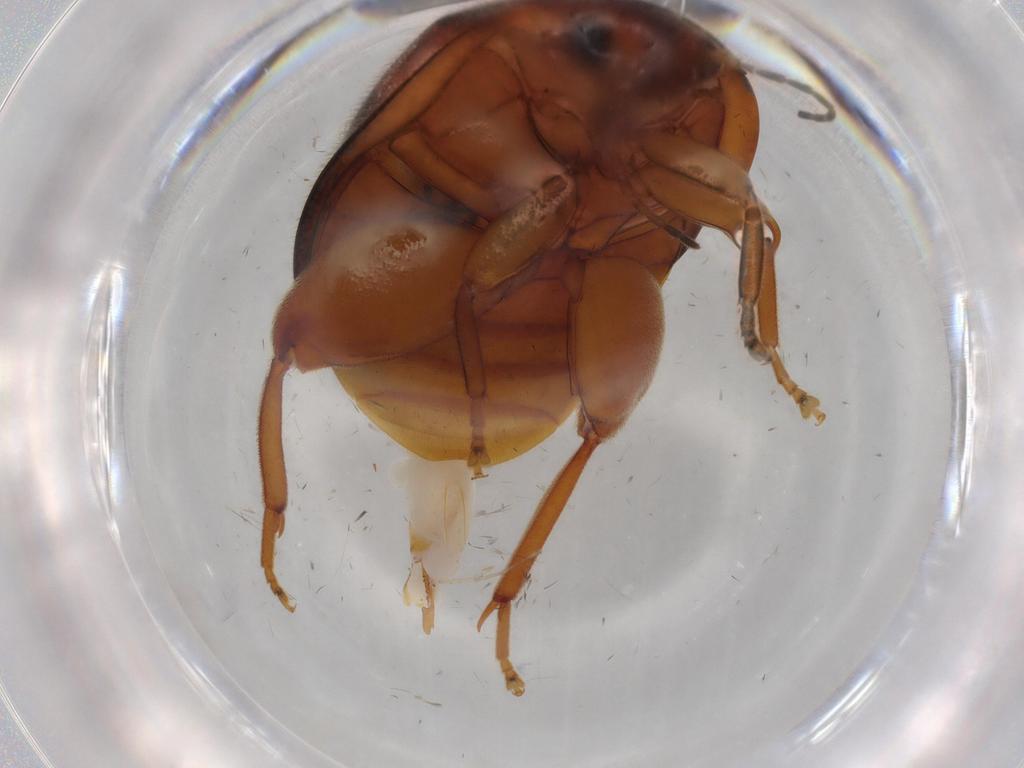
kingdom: Animalia
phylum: Arthropoda
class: Insecta
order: Coleoptera
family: Scirtidae
